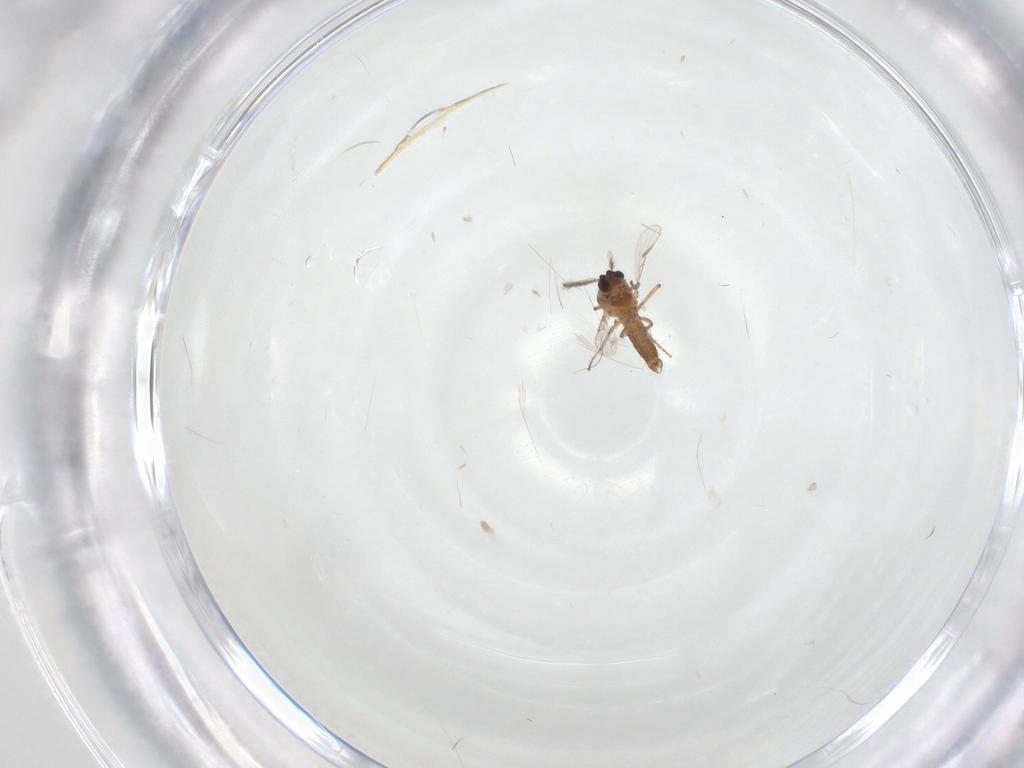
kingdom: Animalia
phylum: Arthropoda
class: Insecta
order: Diptera
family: Ceratopogonidae
